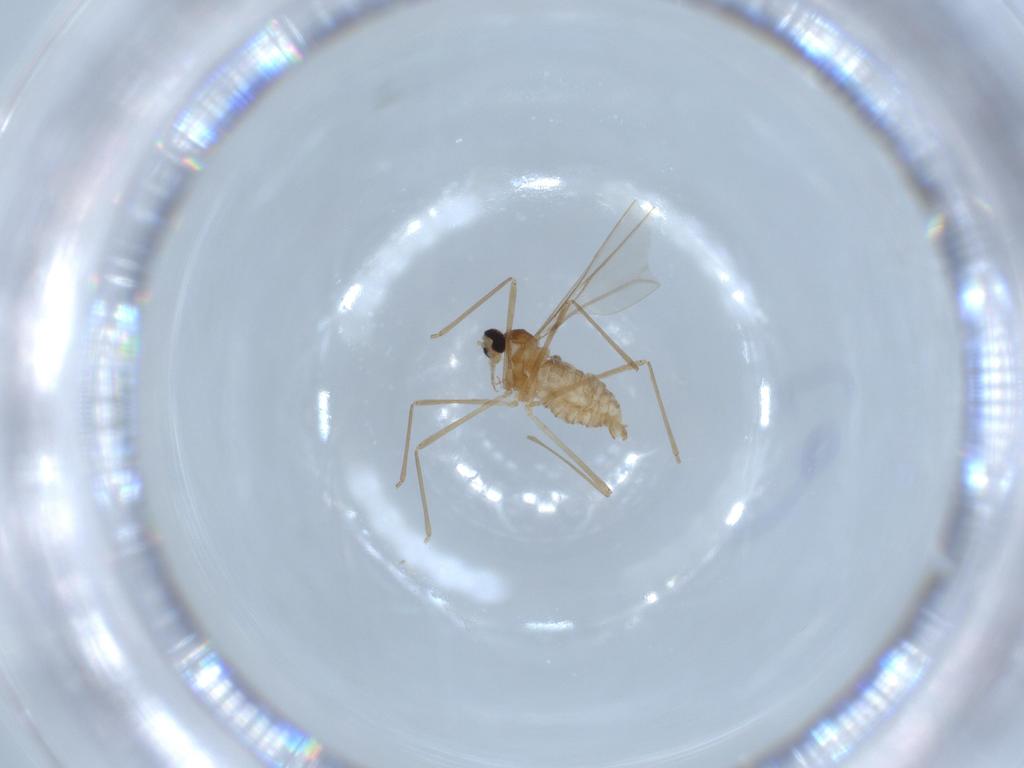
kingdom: Animalia
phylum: Arthropoda
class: Insecta
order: Diptera
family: Cecidomyiidae
